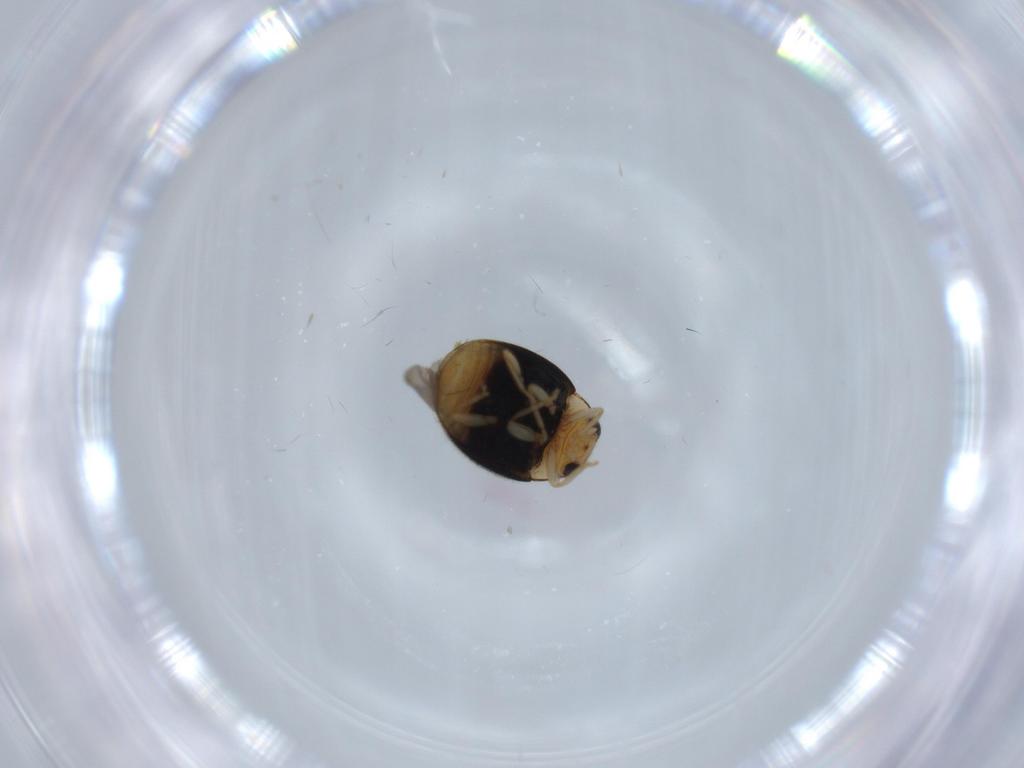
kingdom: Animalia
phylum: Arthropoda
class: Insecta
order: Coleoptera
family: Coccinellidae
